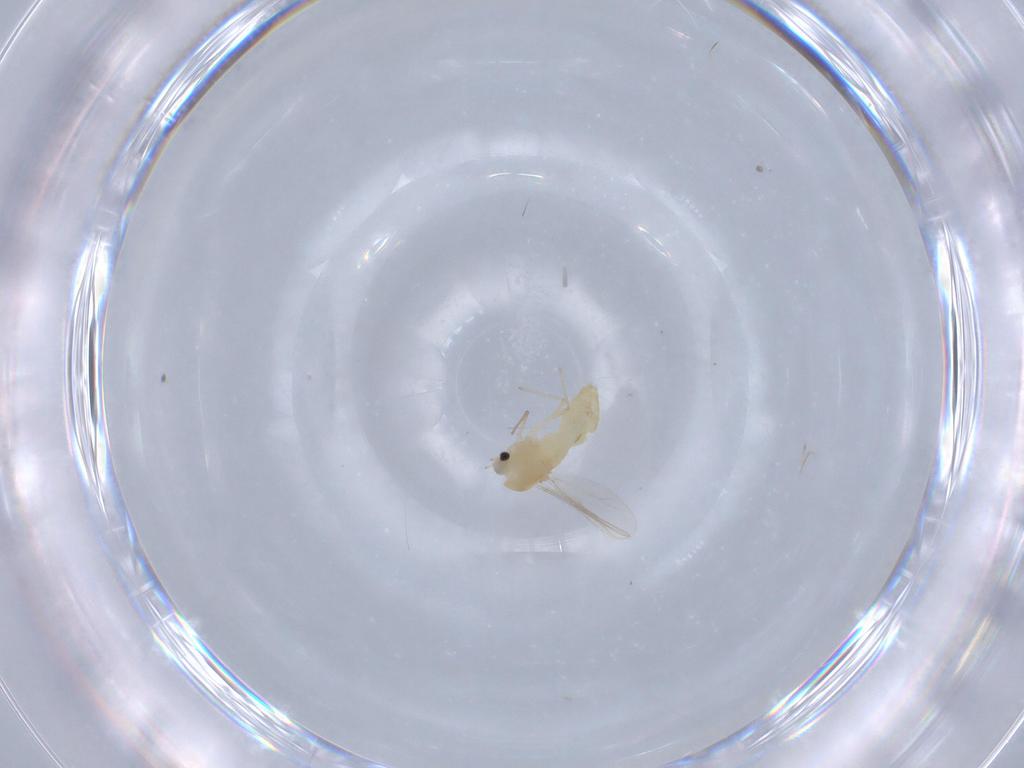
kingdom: Animalia
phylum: Arthropoda
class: Insecta
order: Diptera
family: Chironomidae
